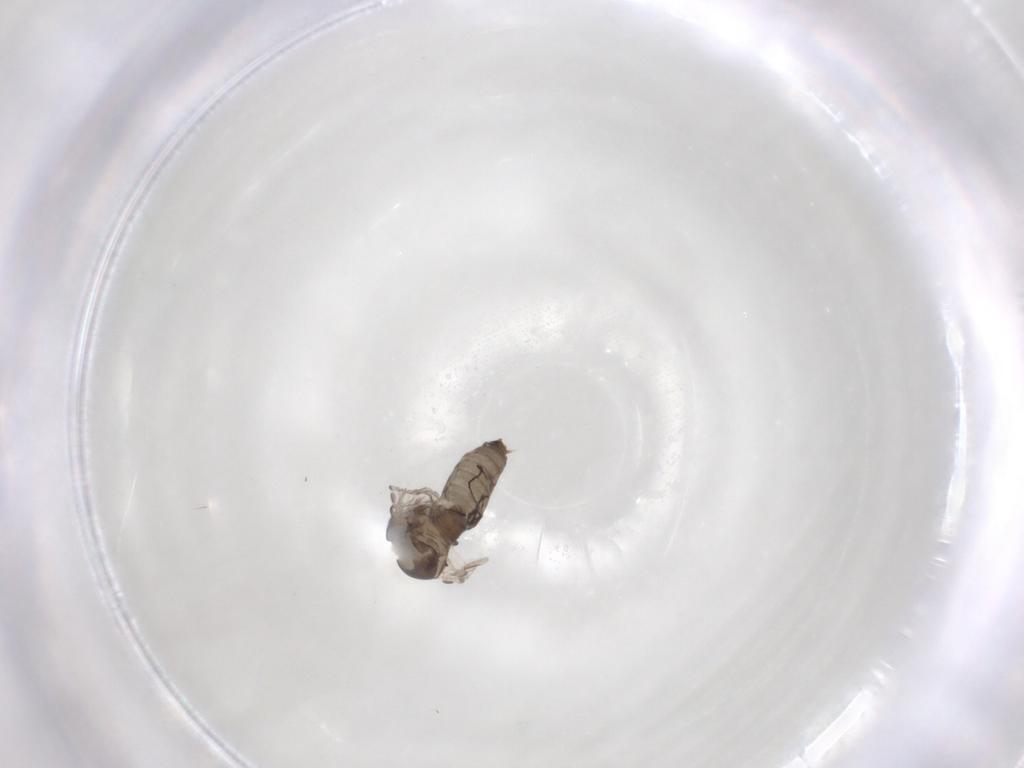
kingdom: Animalia
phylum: Arthropoda
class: Insecta
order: Diptera
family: Psychodidae
